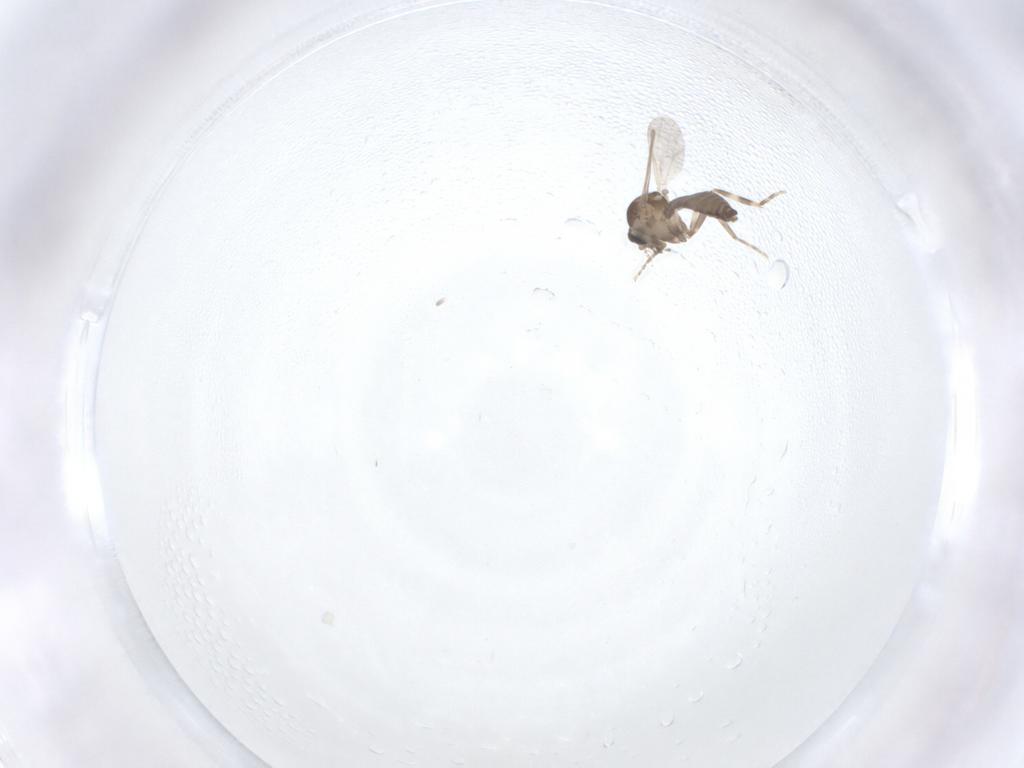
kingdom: Animalia
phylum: Arthropoda
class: Insecta
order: Diptera
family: Ceratopogonidae
